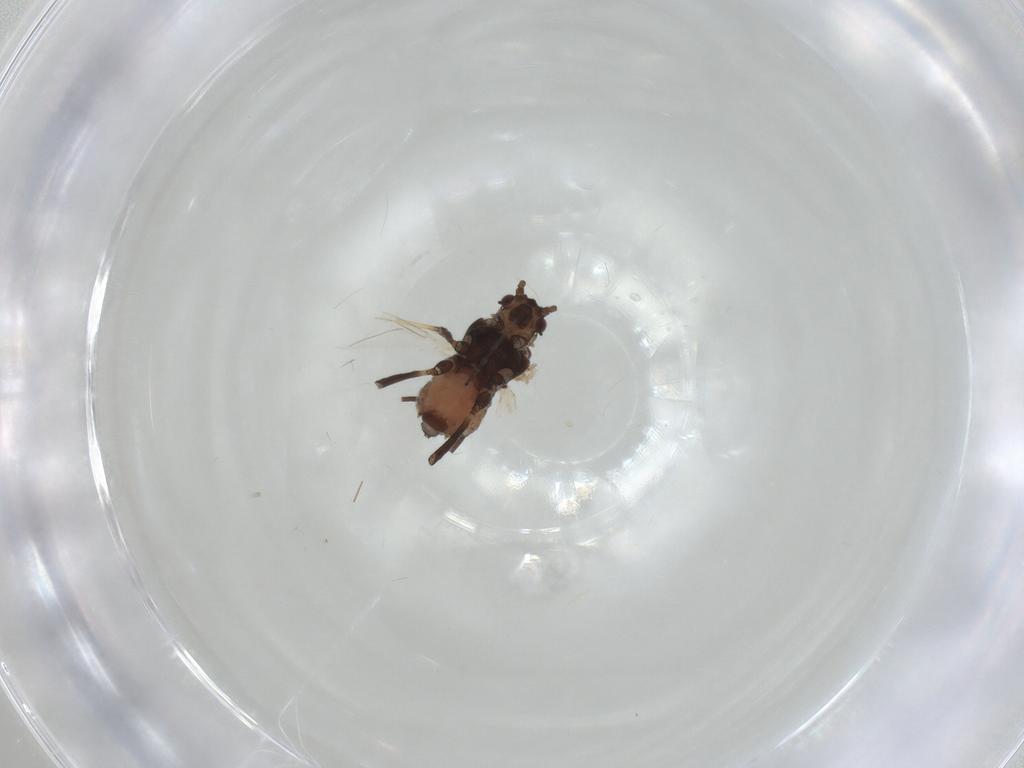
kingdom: Animalia
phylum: Arthropoda
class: Insecta
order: Hemiptera
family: Aphididae
